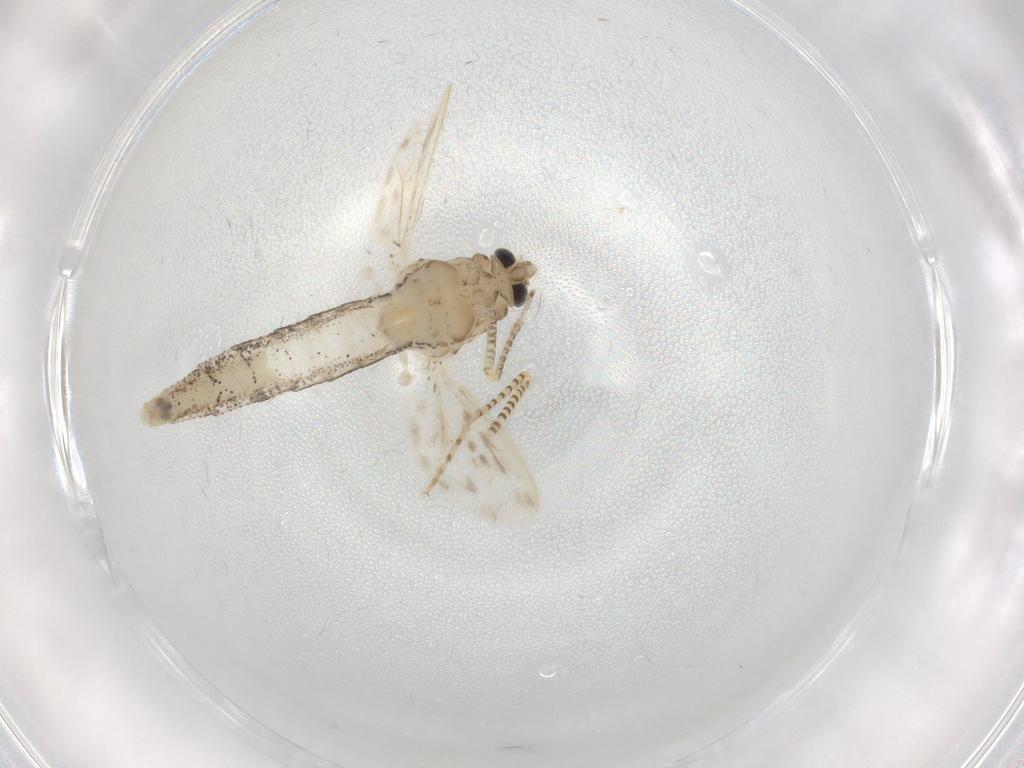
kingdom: Animalia
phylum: Arthropoda
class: Insecta
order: Diptera
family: Chaoboridae
